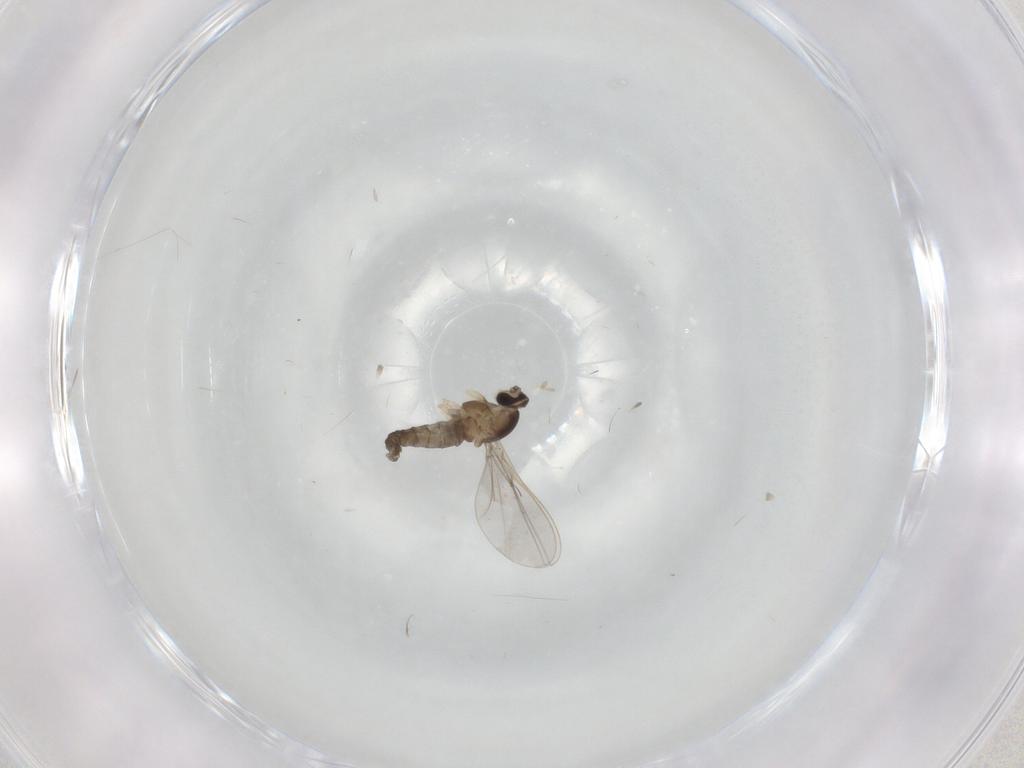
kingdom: Animalia
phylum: Arthropoda
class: Insecta
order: Diptera
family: Cecidomyiidae
